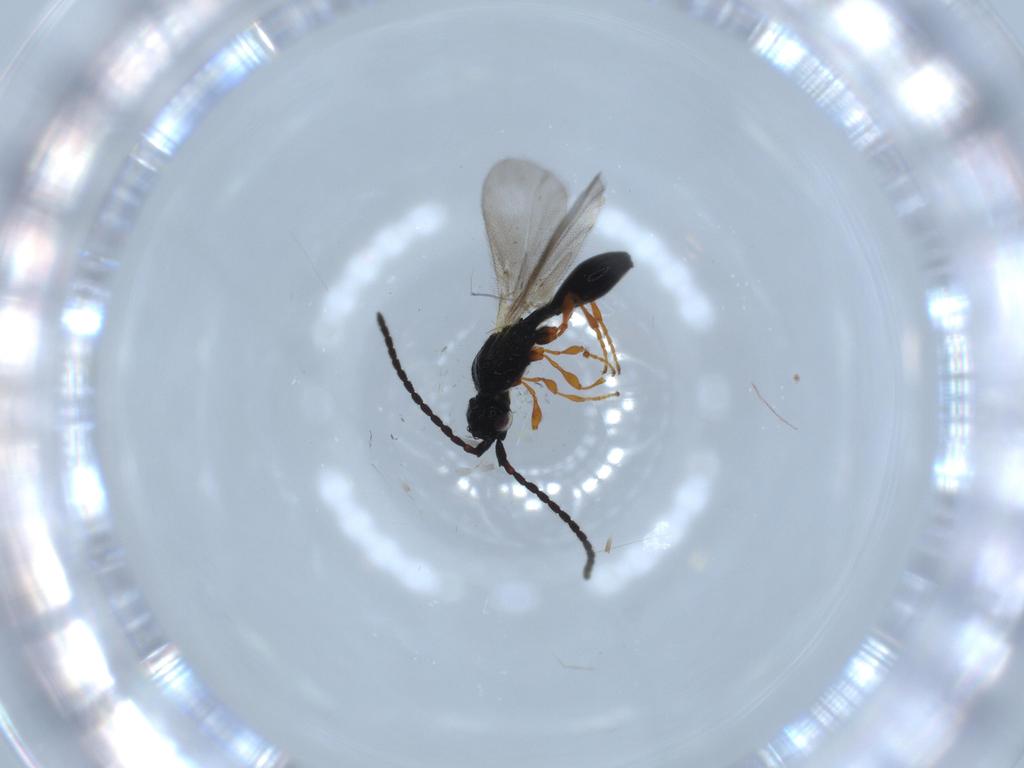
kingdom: Animalia
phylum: Arthropoda
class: Insecta
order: Hymenoptera
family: Diapriidae
